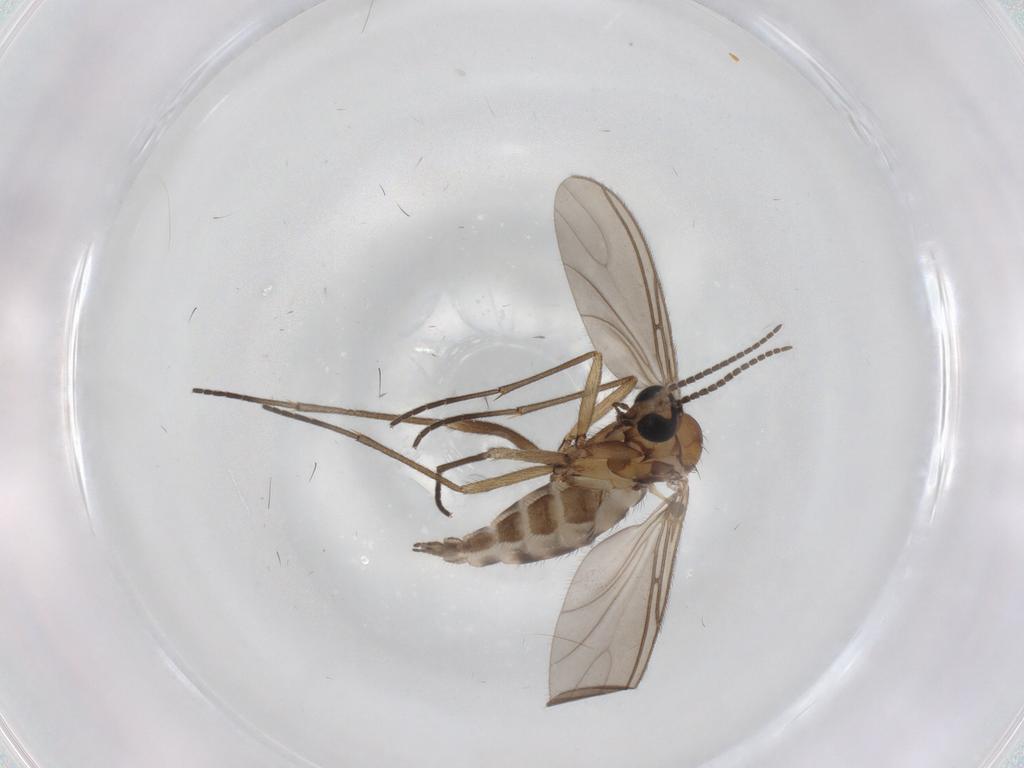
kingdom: Animalia
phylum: Arthropoda
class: Insecta
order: Diptera
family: Sciaridae
